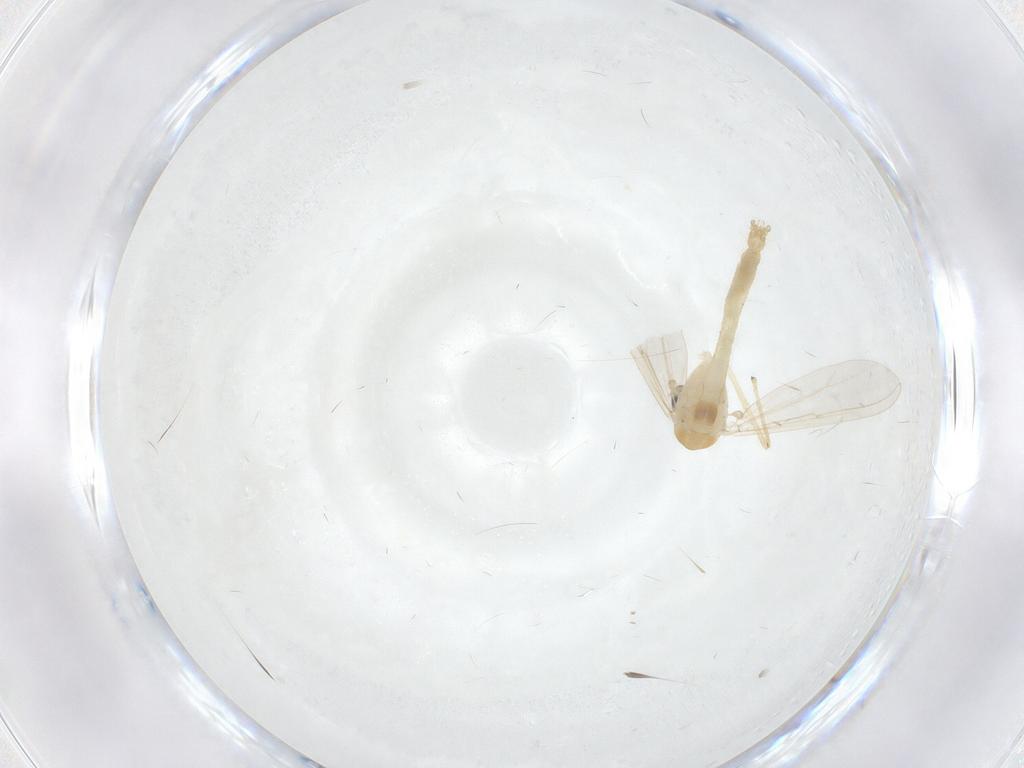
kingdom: Animalia
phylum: Arthropoda
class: Insecta
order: Diptera
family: Chironomidae
